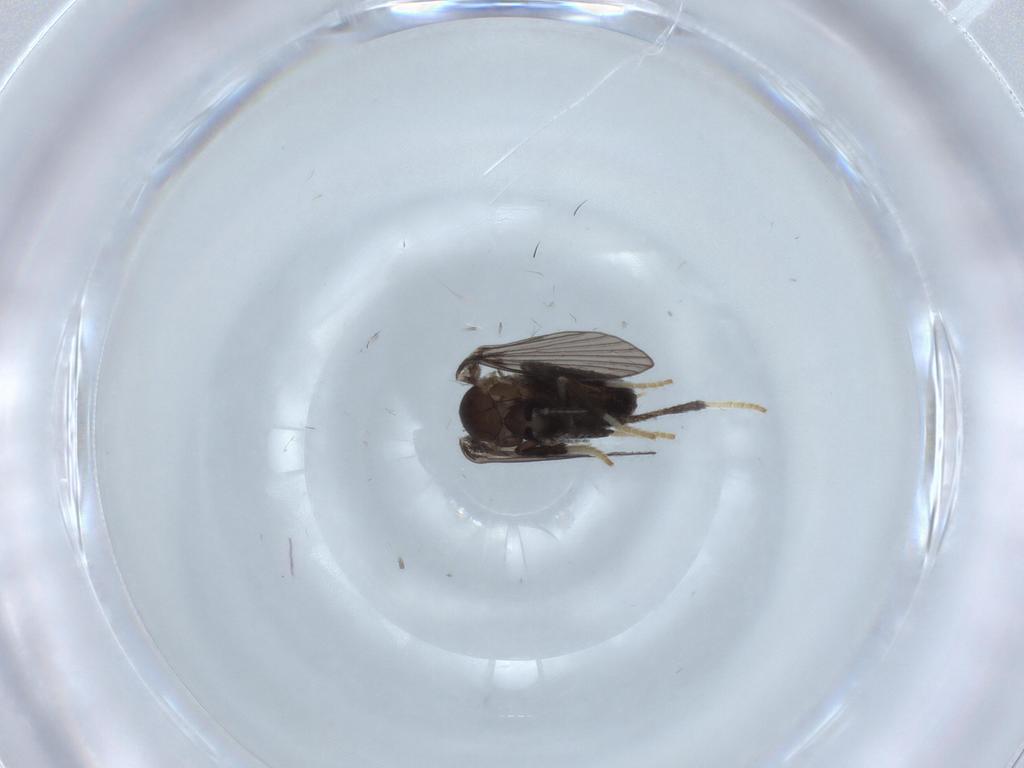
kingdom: Animalia
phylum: Arthropoda
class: Insecta
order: Diptera
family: Psychodidae
